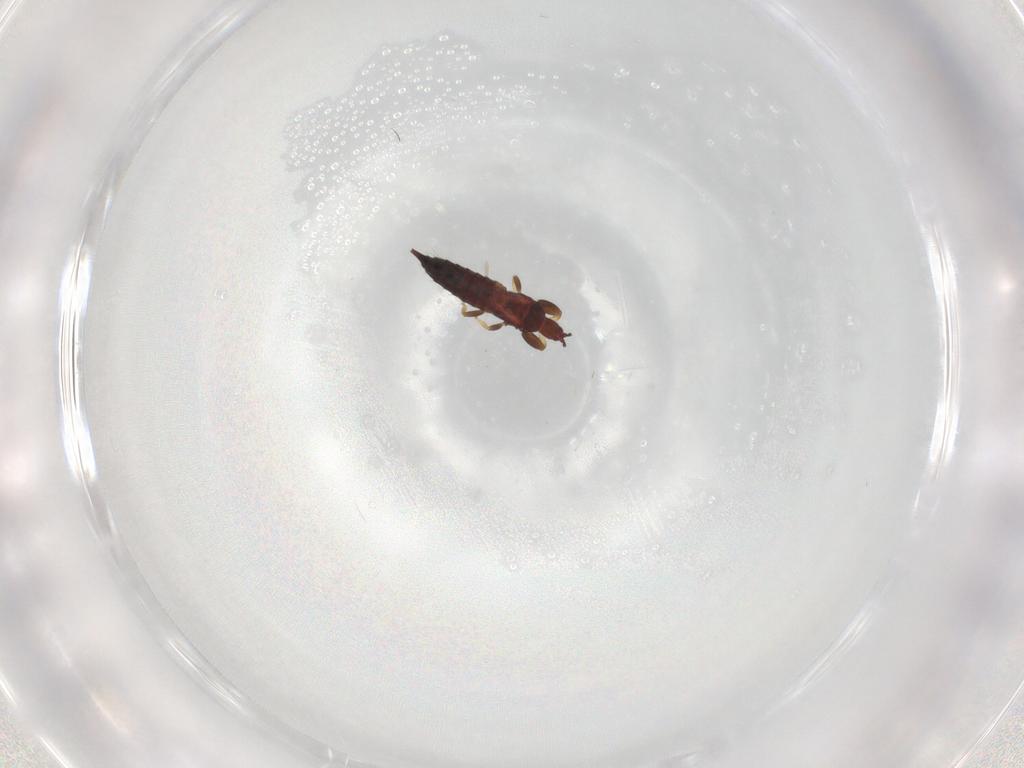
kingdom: Animalia
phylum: Arthropoda
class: Insecta
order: Thysanoptera
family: Phlaeothripidae
